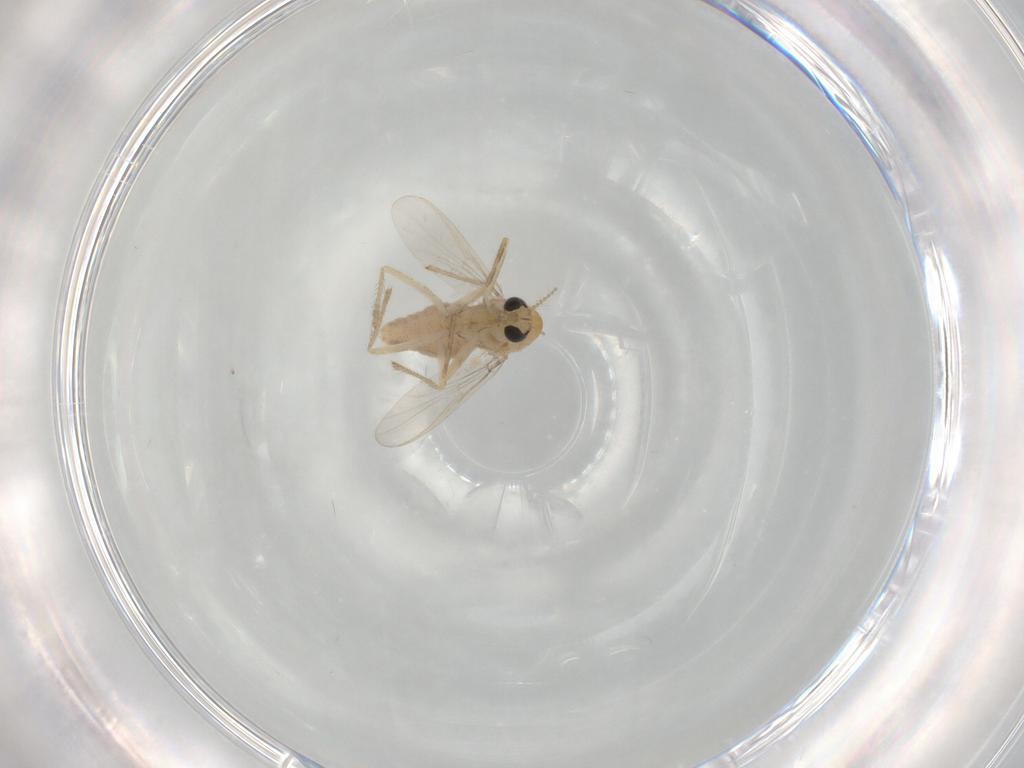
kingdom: Animalia
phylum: Arthropoda
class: Insecta
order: Diptera
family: Chironomidae
